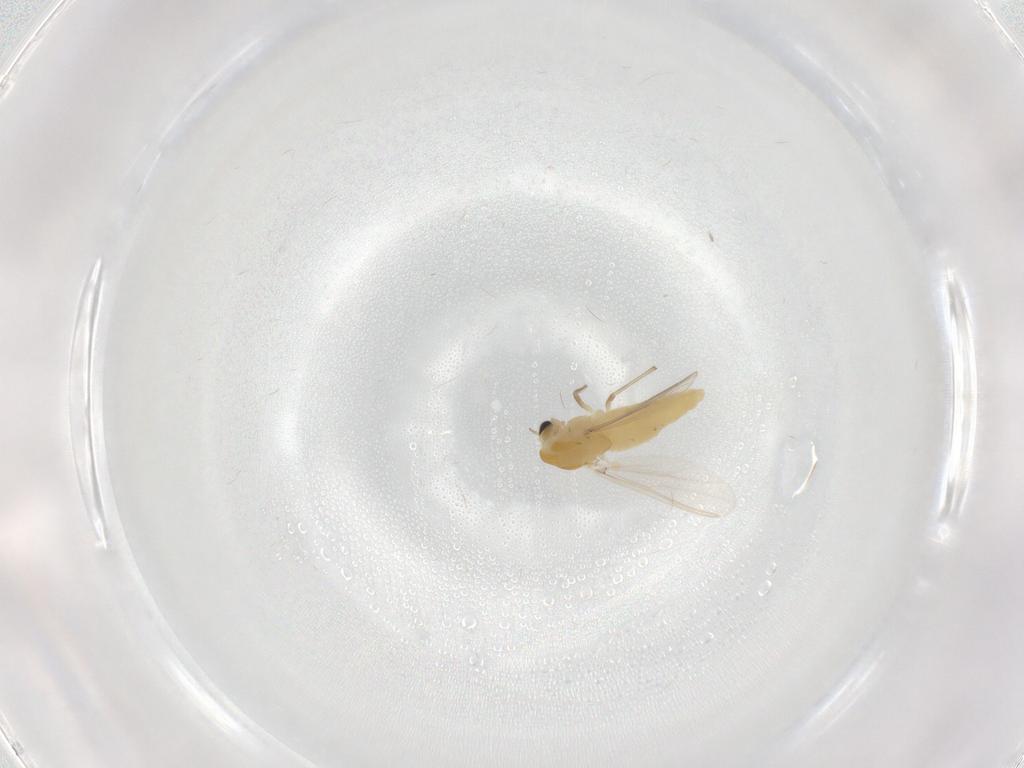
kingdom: Animalia
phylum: Arthropoda
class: Insecta
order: Diptera
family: Chironomidae
